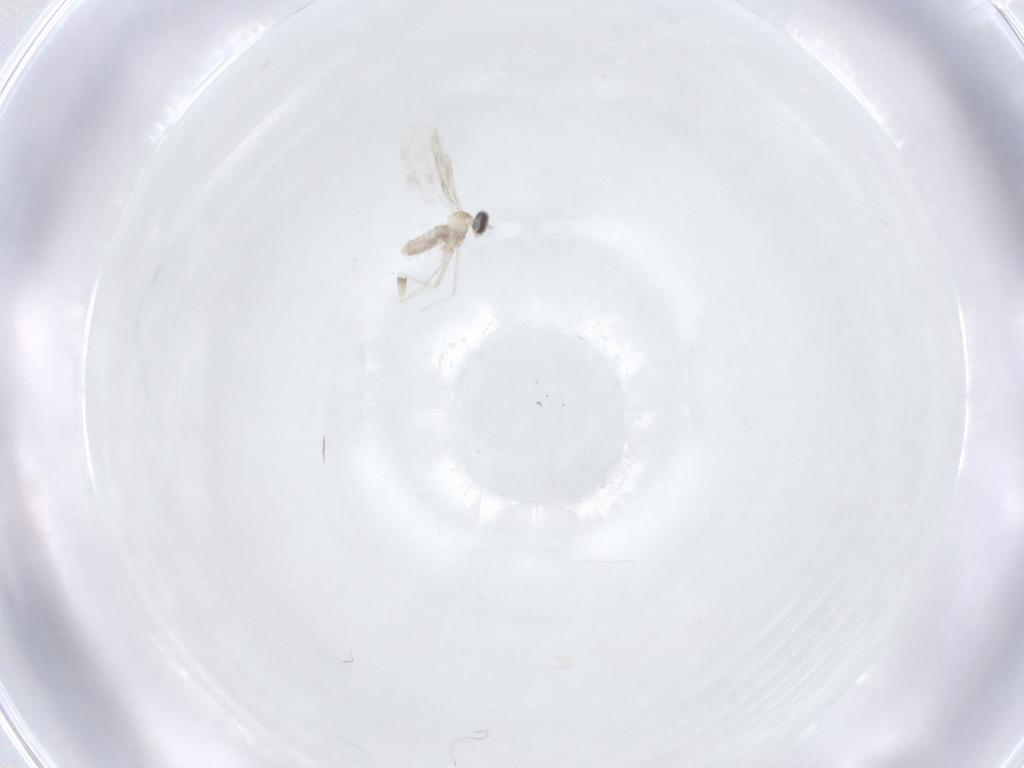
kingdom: Animalia
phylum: Arthropoda
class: Insecta
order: Diptera
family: Cecidomyiidae
